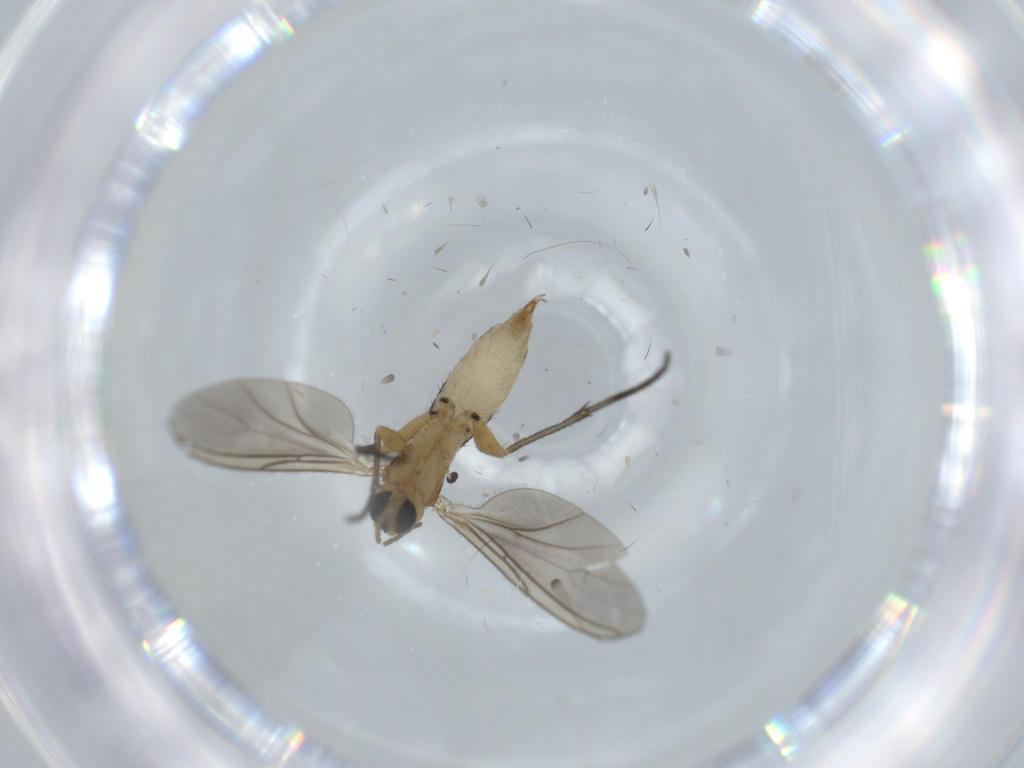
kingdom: Animalia
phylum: Arthropoda
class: Insecta
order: Diptera
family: Sciaridae
